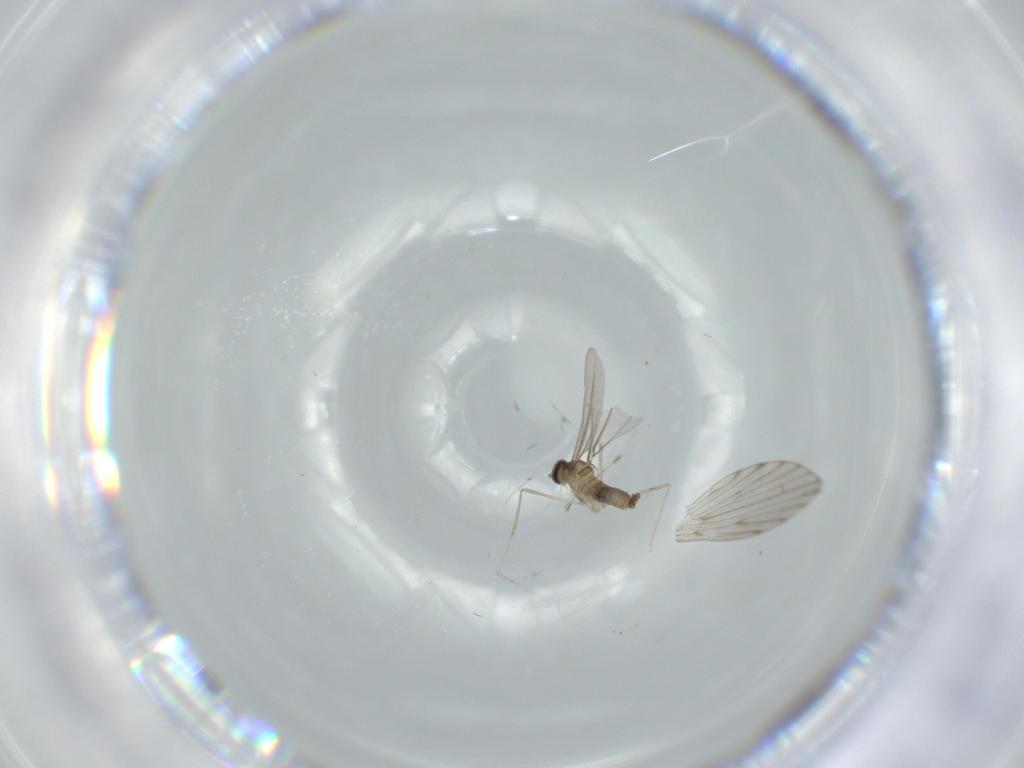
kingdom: Animalia
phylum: Arthropoda
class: Insecta
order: Diptera
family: Cecidomyiidae
